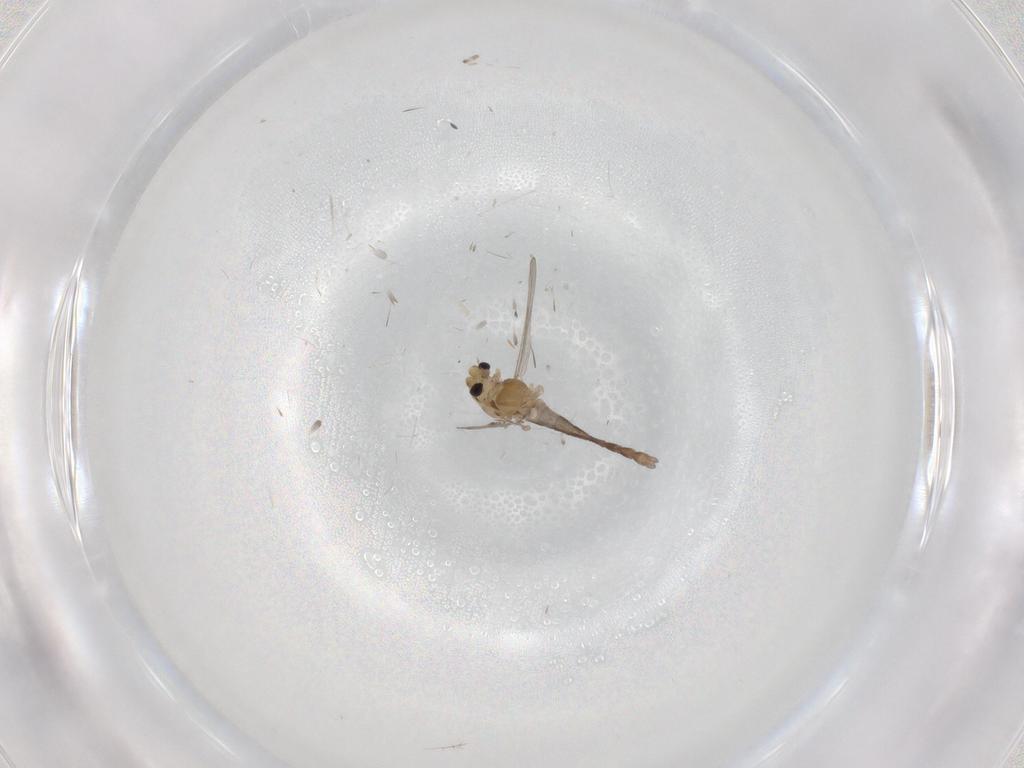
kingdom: Animalia
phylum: Arthropoda
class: Insecta
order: Diptera
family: Chironomidae
